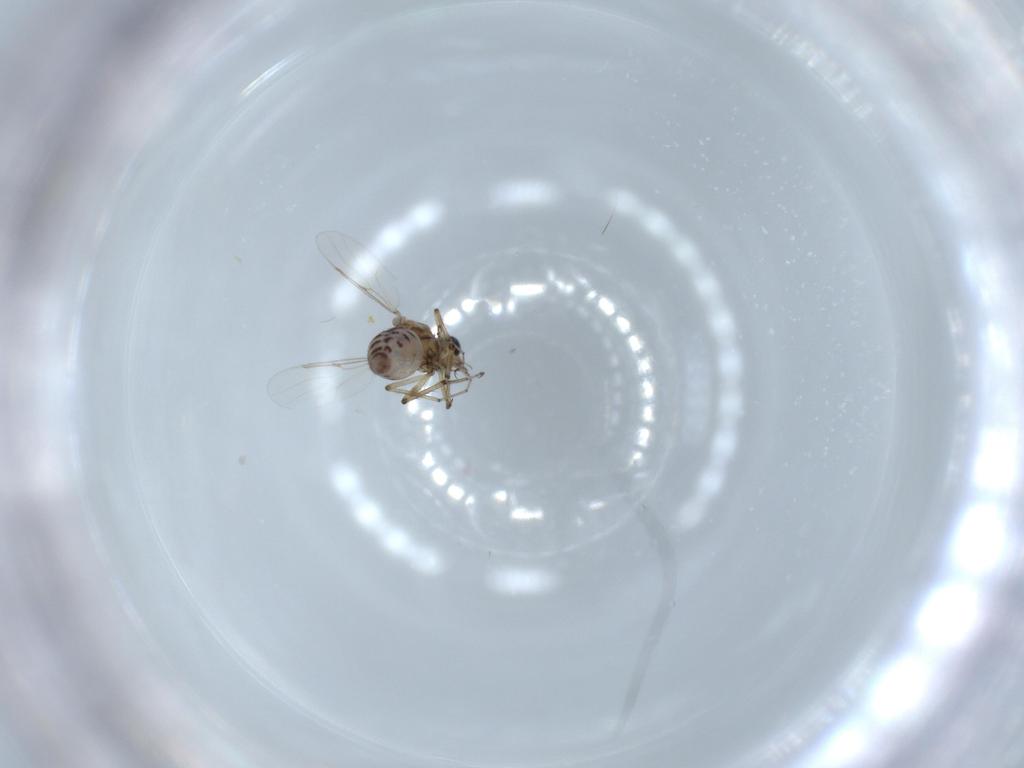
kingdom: Animalia
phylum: Arthropoda
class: Insecta
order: Diptera
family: Ceratopogonidae
